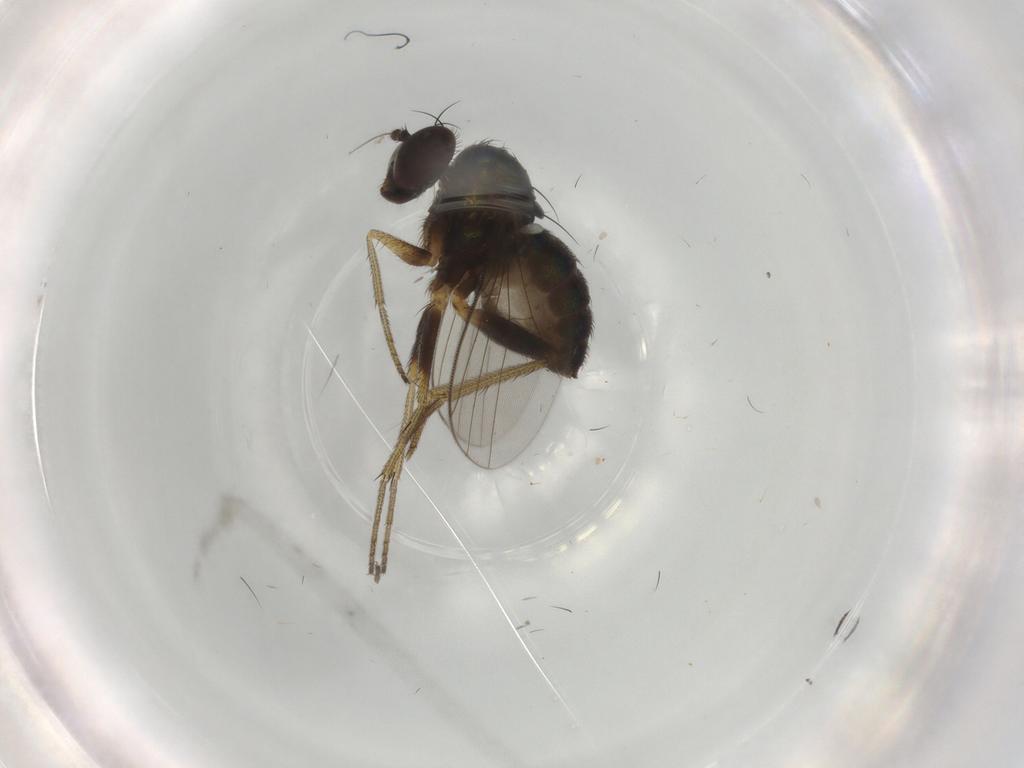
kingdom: Animalia
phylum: Arthropoda
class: Insecta
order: Diptera
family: Dolichopodidae
